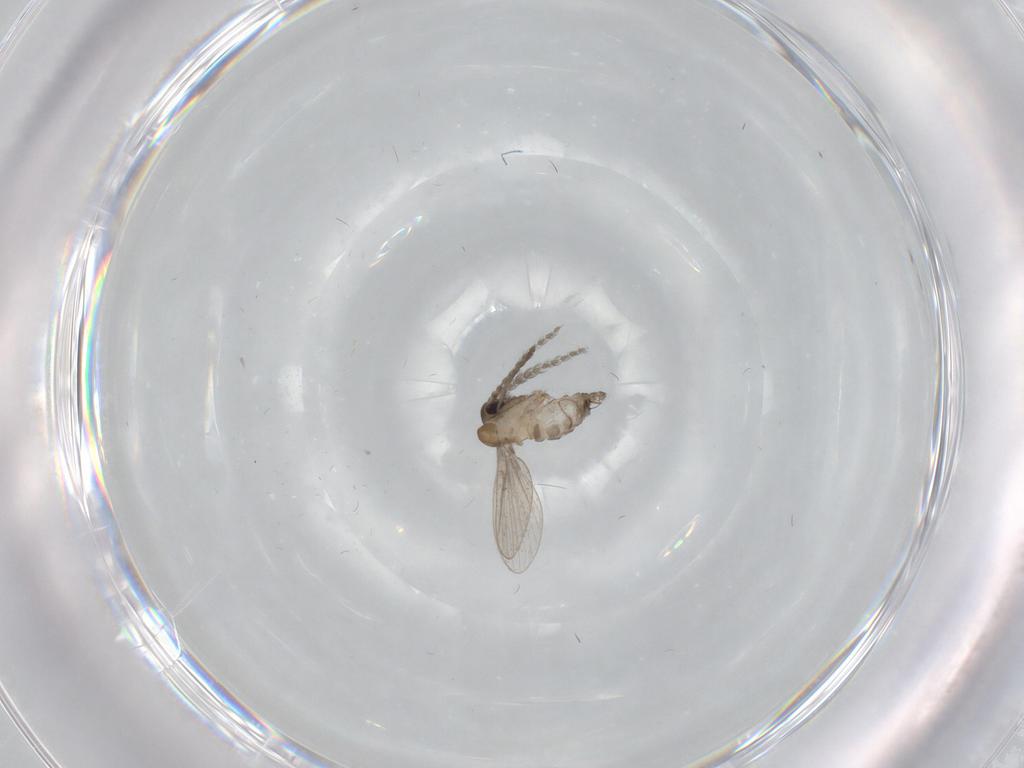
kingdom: Animalia
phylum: Arthropoda
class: Insecta
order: Diptera
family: Psychodidae
